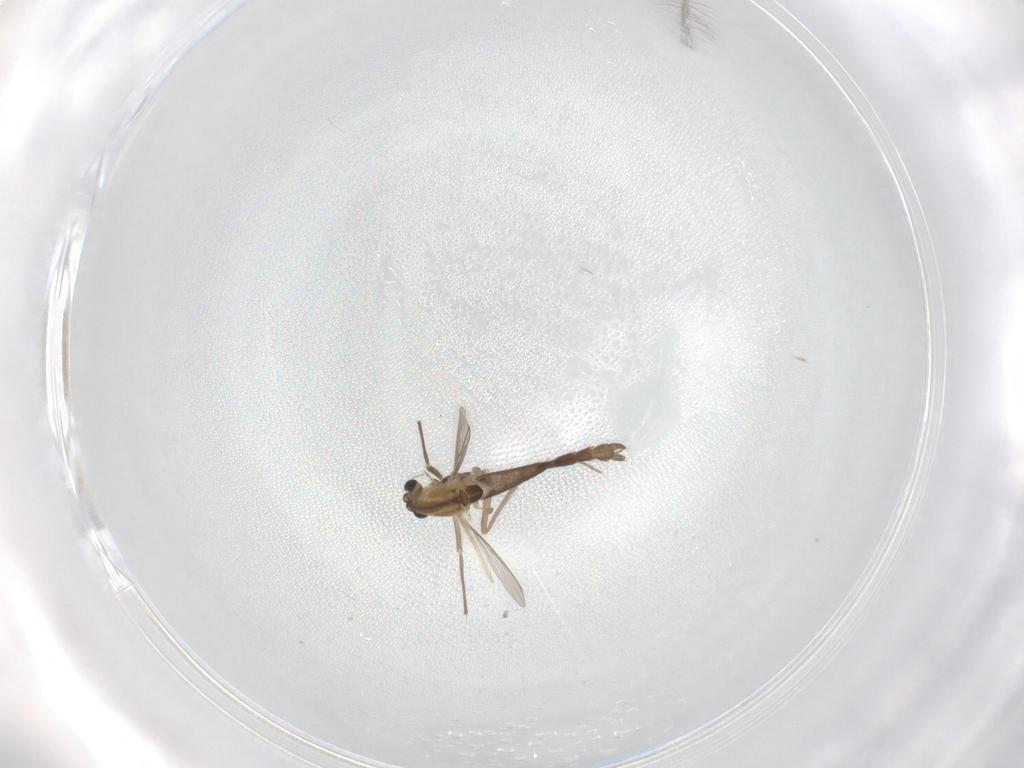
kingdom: Animalia
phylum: Arthropoda
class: Insecta
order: Diptera
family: Chironomidae
